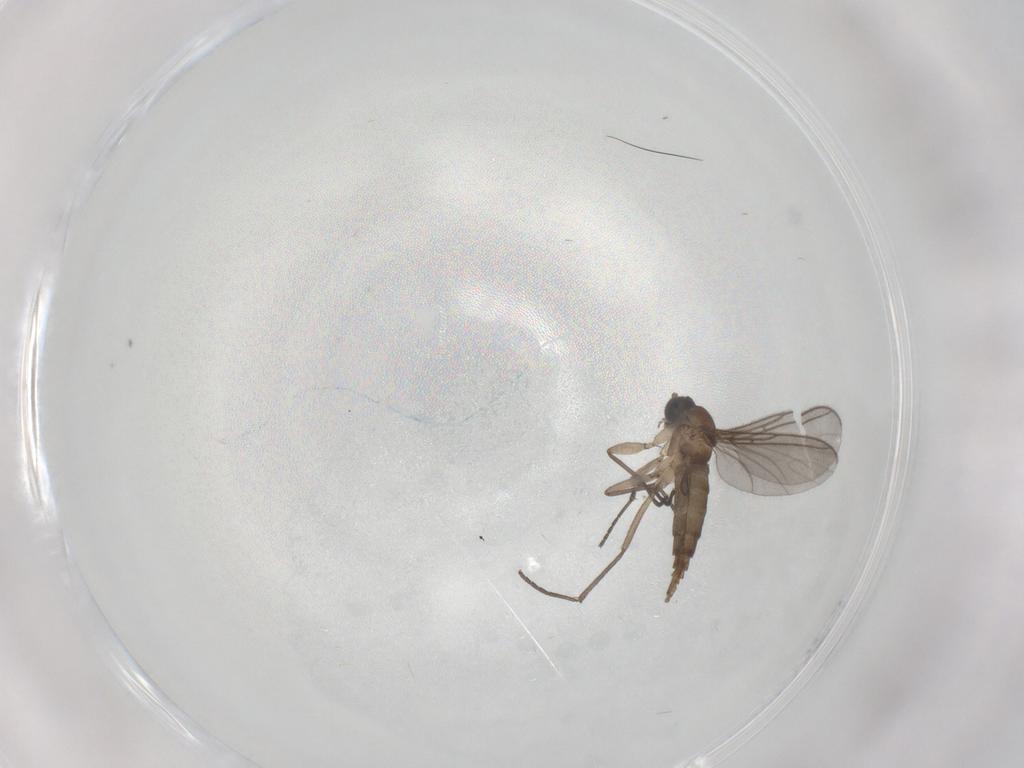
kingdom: Animalia
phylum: Arthropoda
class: Insecta
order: Diptera
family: Sciaridae
